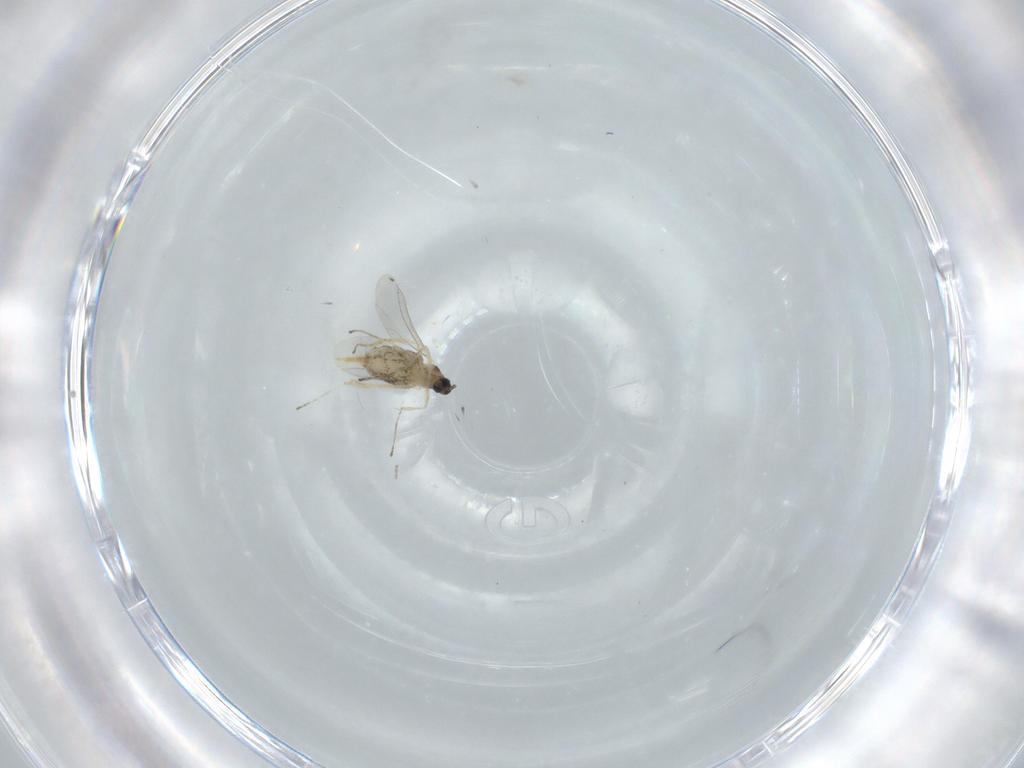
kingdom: Animalia
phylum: Arthropoda
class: Insecta
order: Diptera
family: Cecidomyiidae
